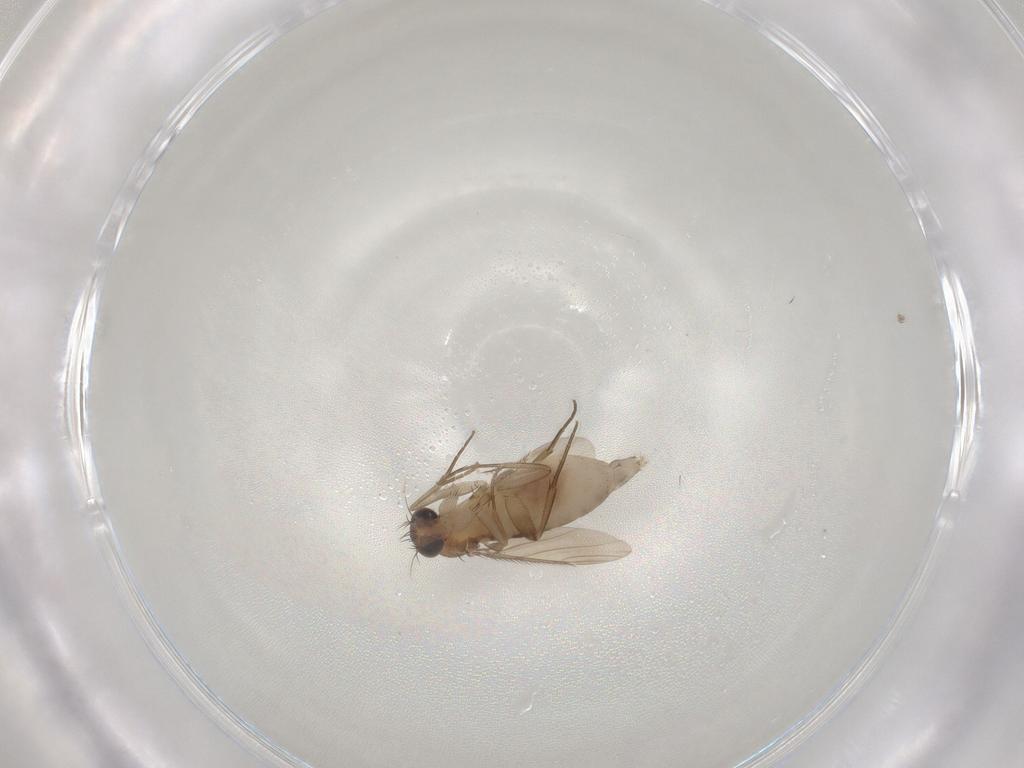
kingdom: Animalia
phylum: Arthropoda
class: Insecta
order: Diptera
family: Phoridae
